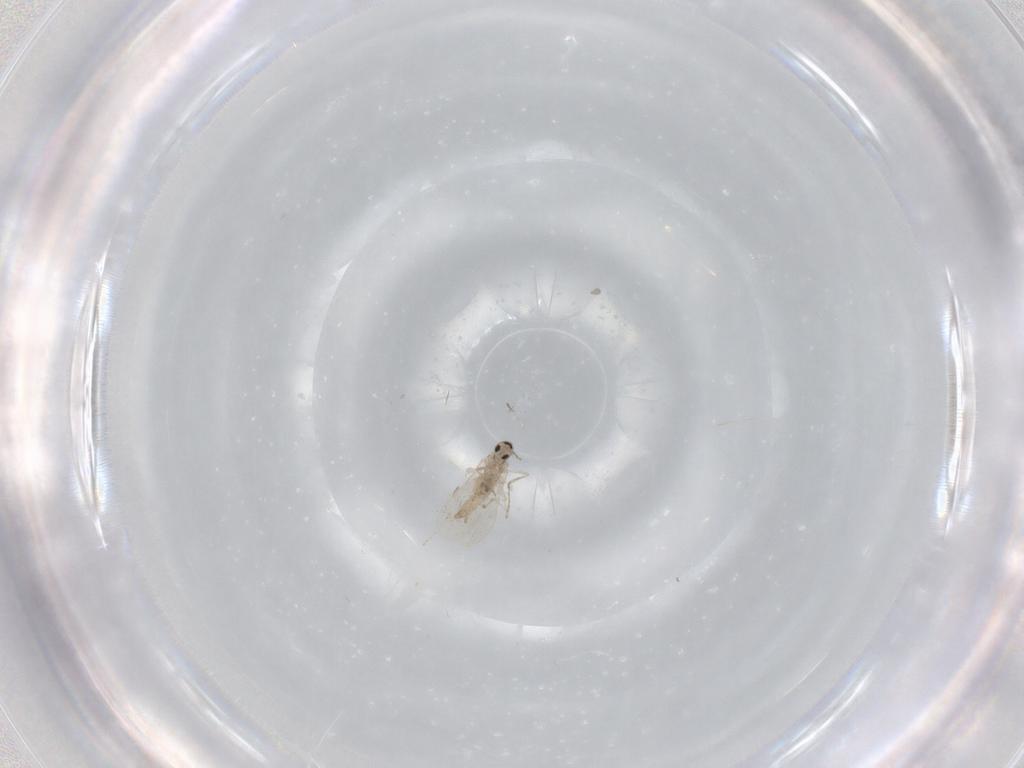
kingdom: Animalia
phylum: Arthropoda
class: Insecta
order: Diptera
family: Cecidomyiidae
